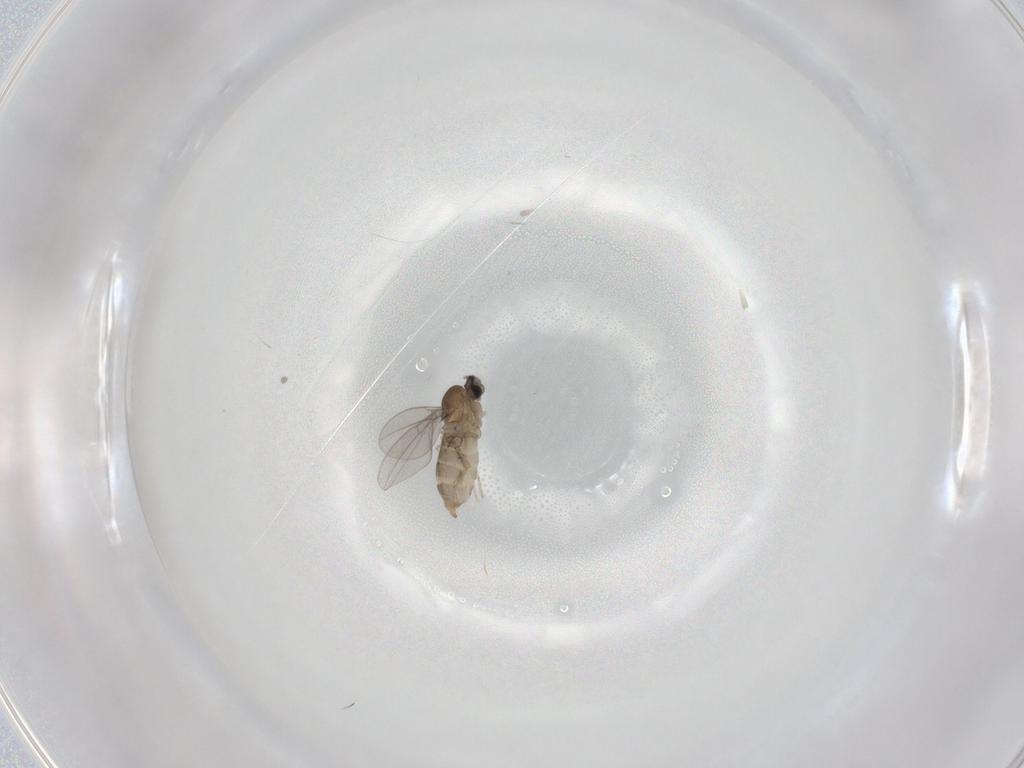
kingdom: Animalia
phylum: Arthropoda
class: Insecta
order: Diptera
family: Cecidomyiidae
